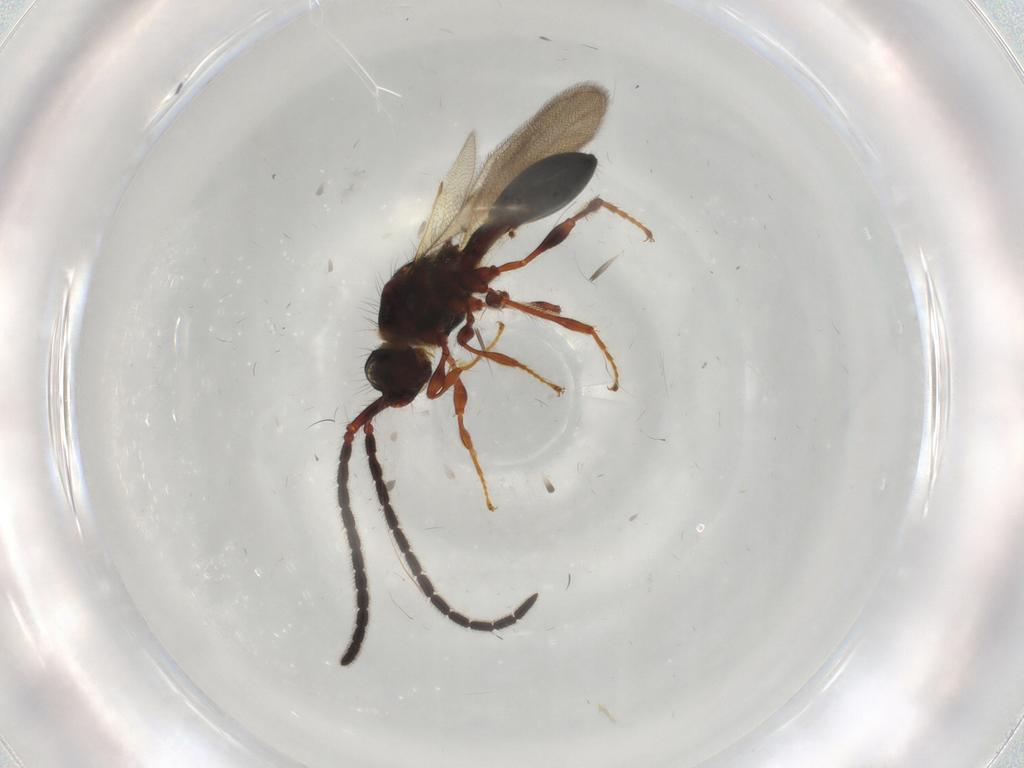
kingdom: Animalia
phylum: Arthropoda
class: Insecta
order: Hymenoptera
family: Diapriidae
